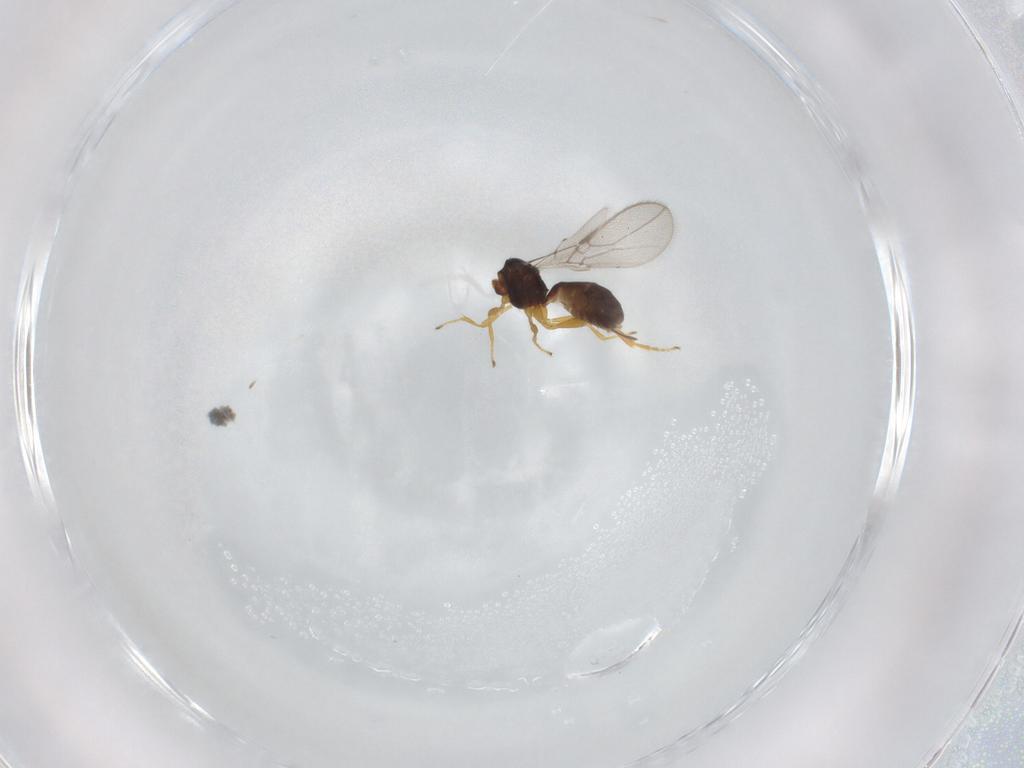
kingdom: Animalia
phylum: Arthropoda
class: Insecta
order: Hymenoptera
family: Braconidae
